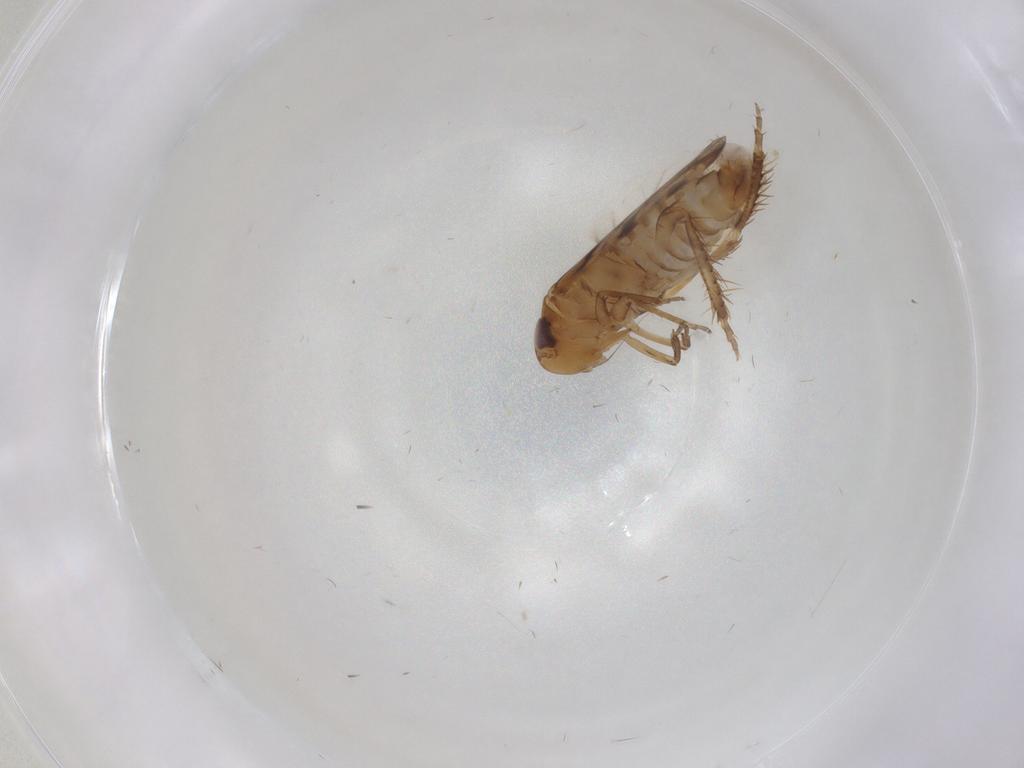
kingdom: Animalia
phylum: Arthropoda
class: Insecta
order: Hemiptera
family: Cicadellidae
